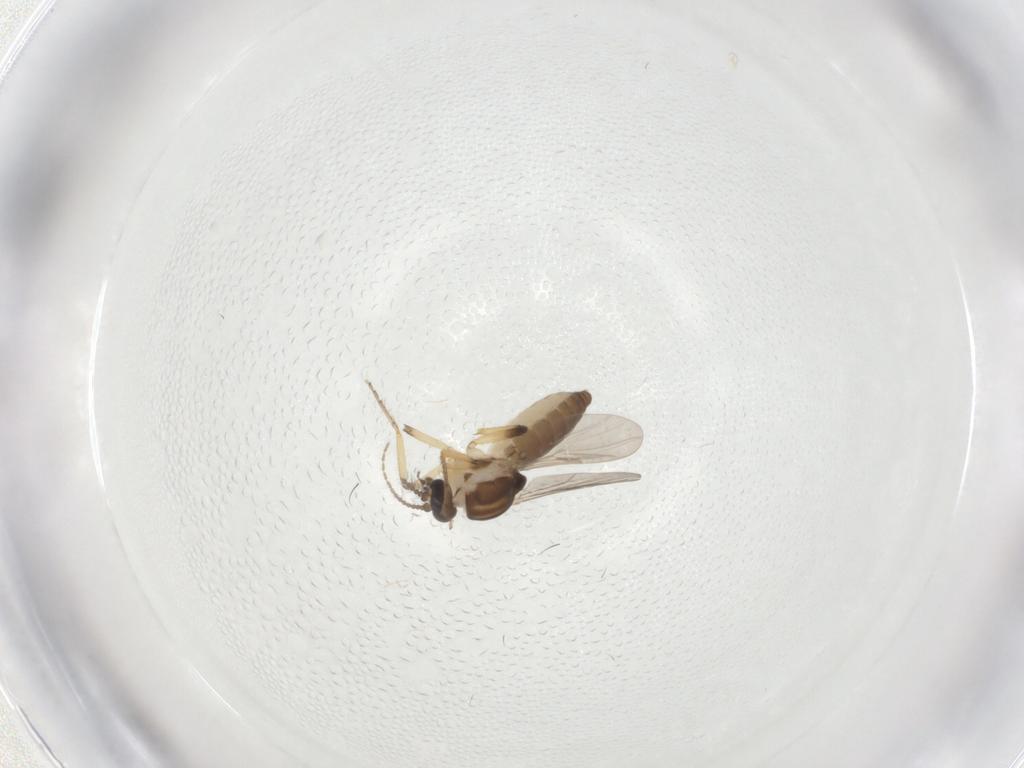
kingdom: Animalia
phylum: Arthropoda
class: Insecta
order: Diptera
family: Ceratopogonidae
